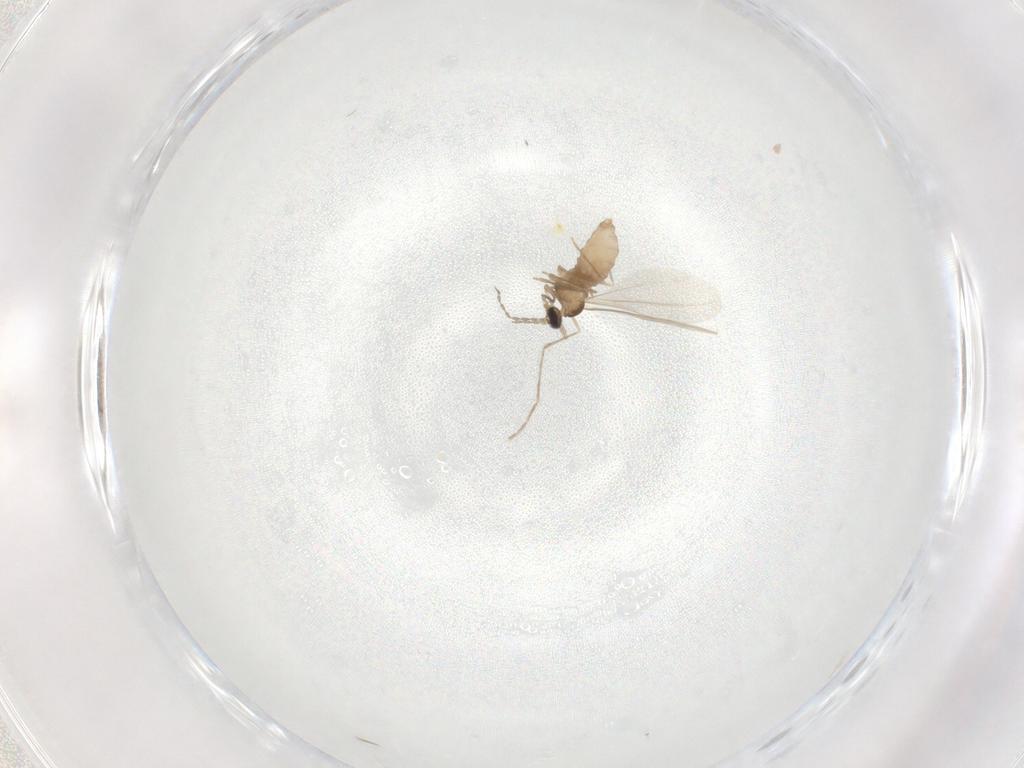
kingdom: Animalia
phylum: Arthropoda
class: Insecta
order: Diptera
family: Cecidomyiidae
